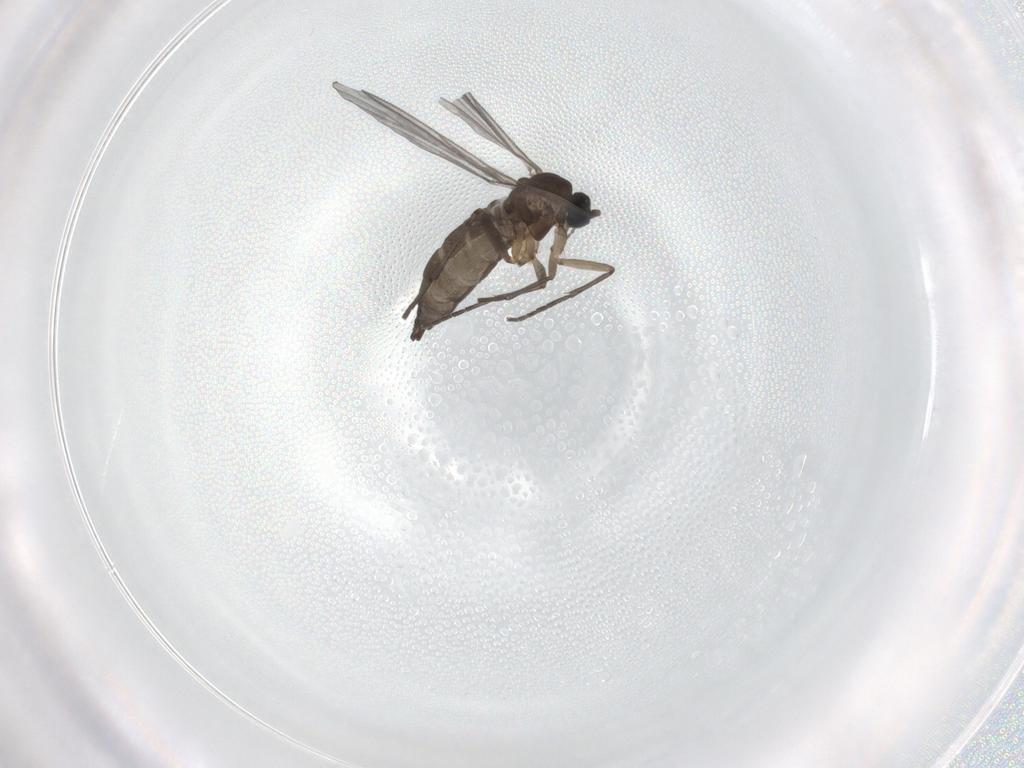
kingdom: Animalia
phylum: Arthropoda
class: Insecta
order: Diptera
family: Sciaridae
